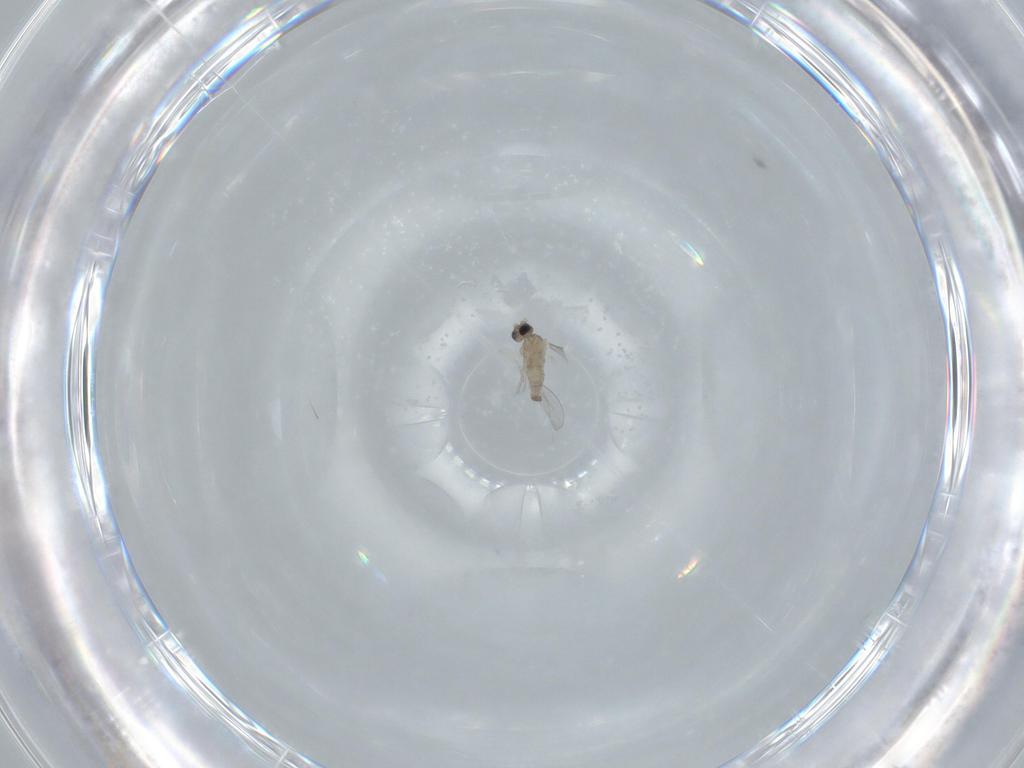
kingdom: Animalia
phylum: Arthropoda
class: Insecta
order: Diptera
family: Cecidomyiidae
